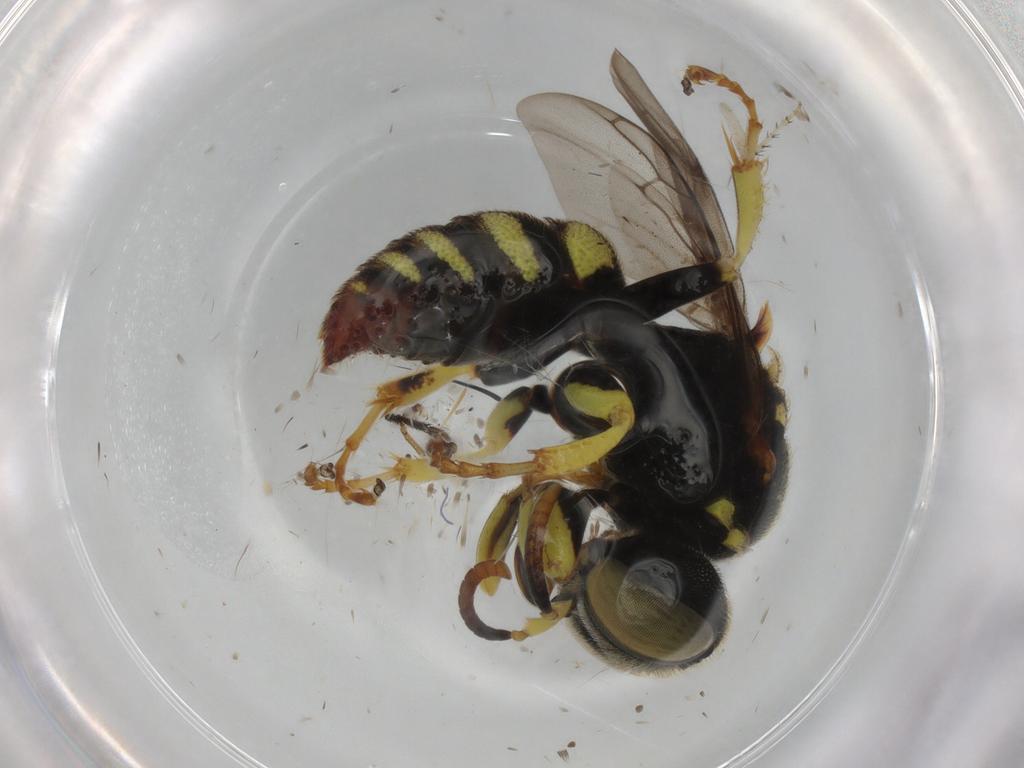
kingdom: Animalia
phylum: Arthropoda
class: Insecta
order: Hymenoptera
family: Crabronidae
